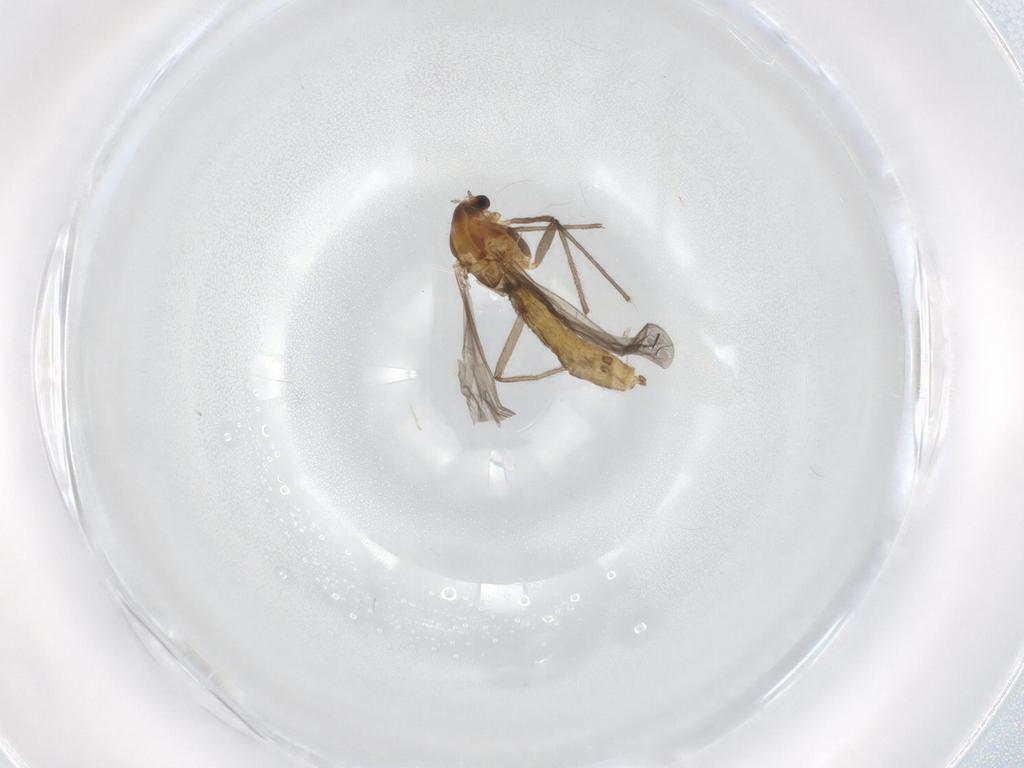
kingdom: Animalia
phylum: Arthropoda
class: Insecta
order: Diptera
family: Chironomidae
